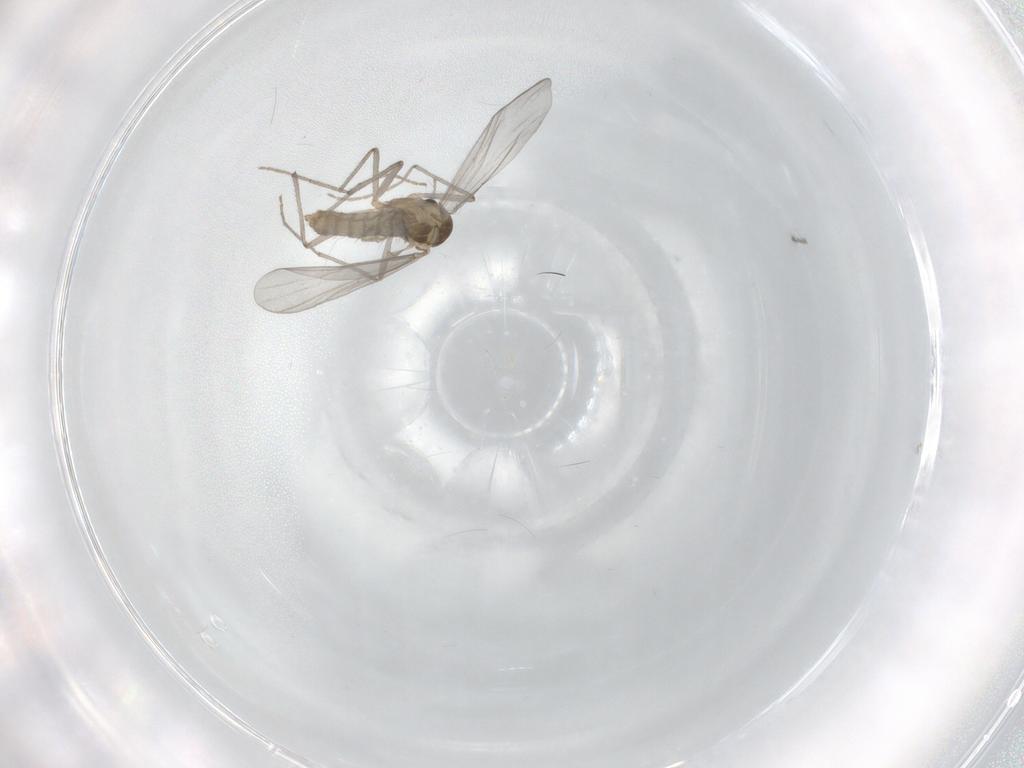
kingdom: Animalia
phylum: Arthropoda
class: Insecta
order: Diptera
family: Chironomidae
